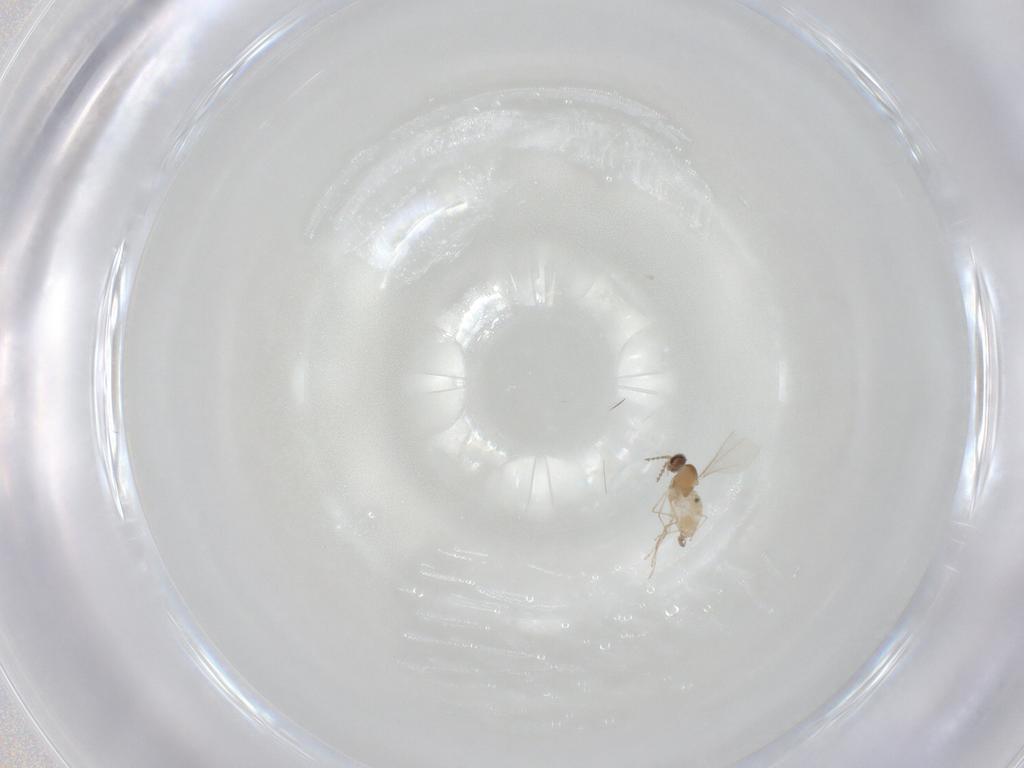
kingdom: Animalia
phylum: Arthropoda
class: Insecta
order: Diptera
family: Cecidomyiidae
